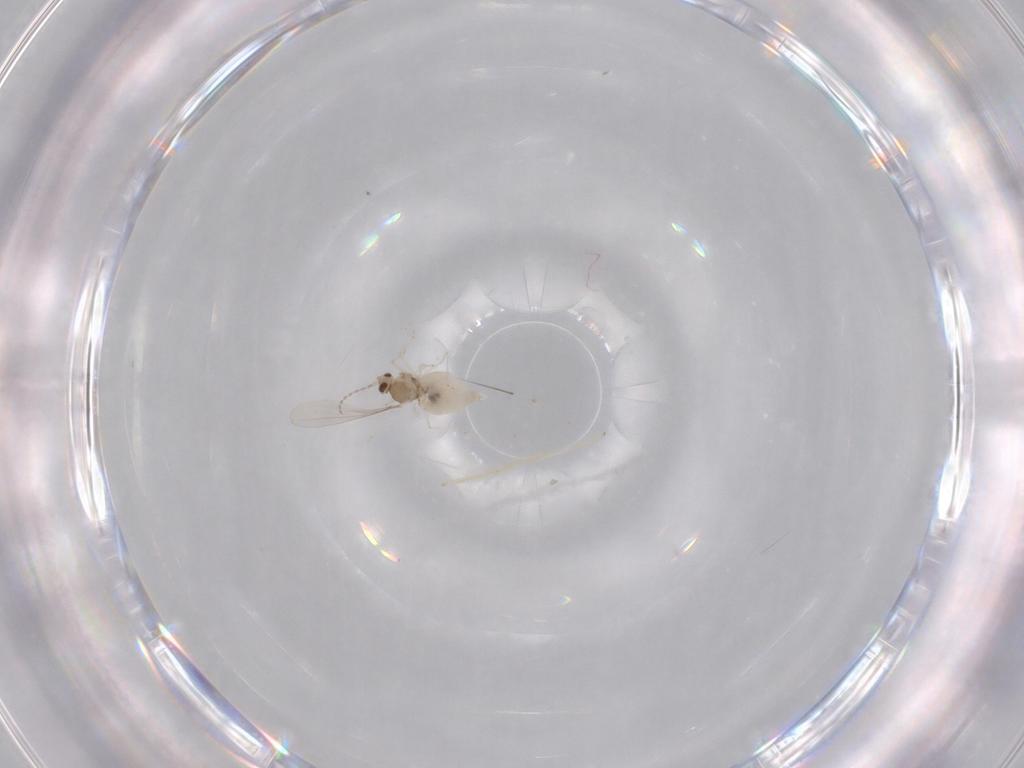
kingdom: Animalia
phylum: Arthropoda
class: Insecta
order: Diptera
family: Cecidomyiidae
